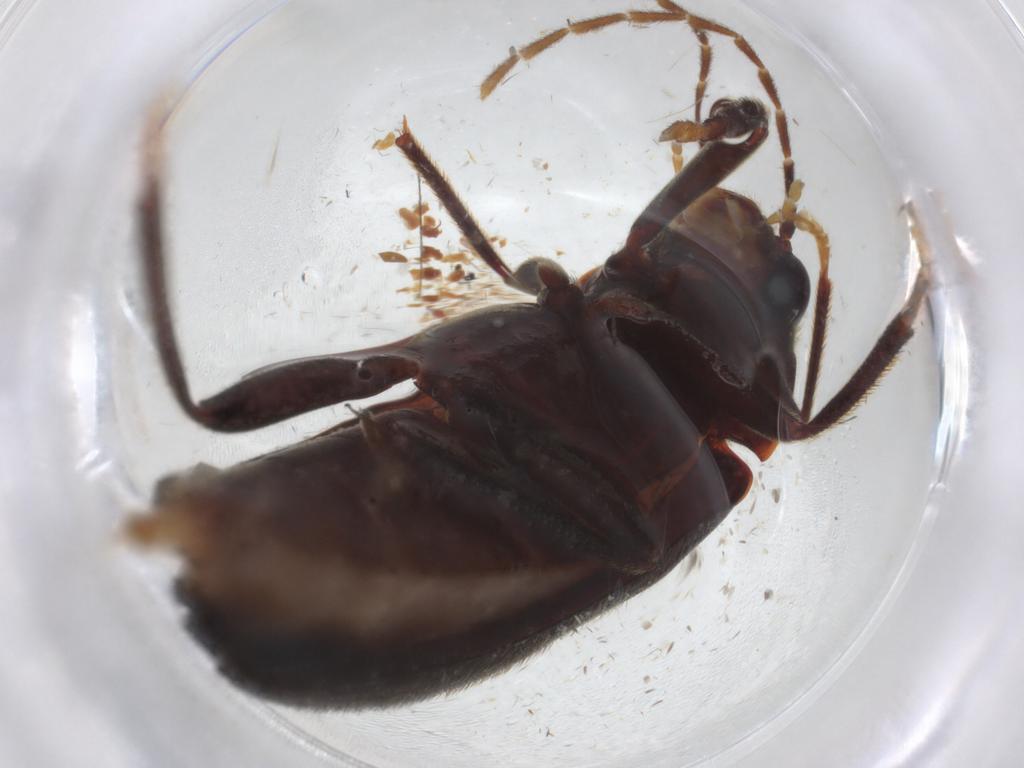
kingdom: Animalia
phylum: Arthropoda
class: Insecta
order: Coleoptera
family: Ptilodactylidae
